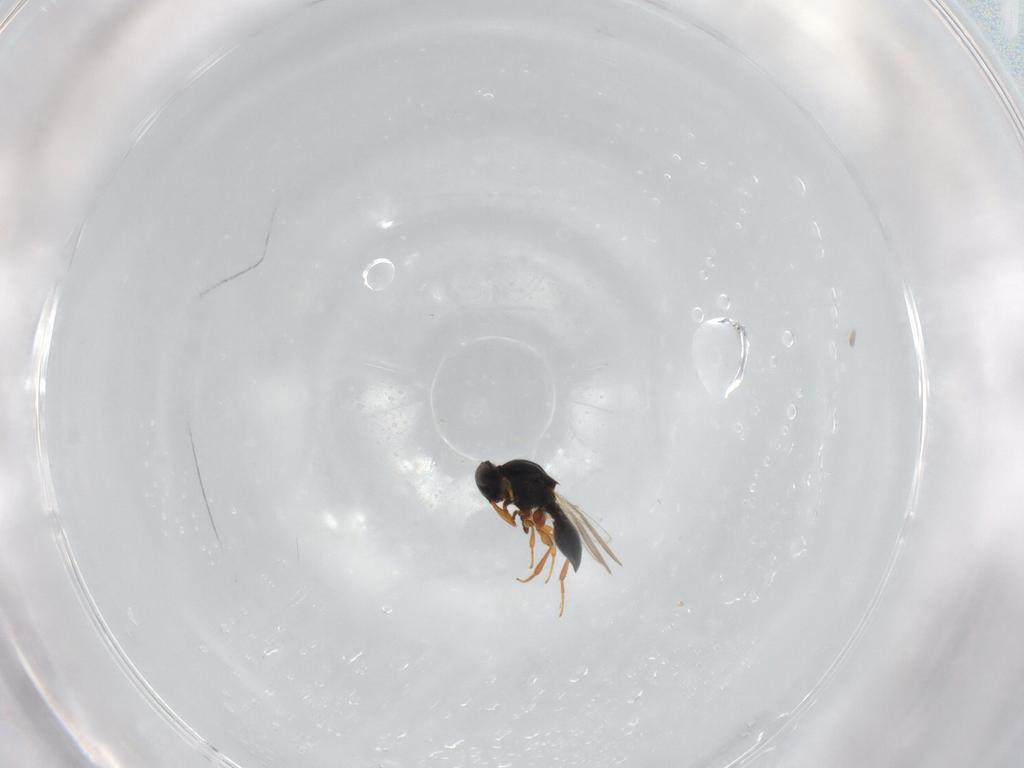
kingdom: Animalia
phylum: Arthropoda
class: Insecta
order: Hymenoptera
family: Platygastridae
